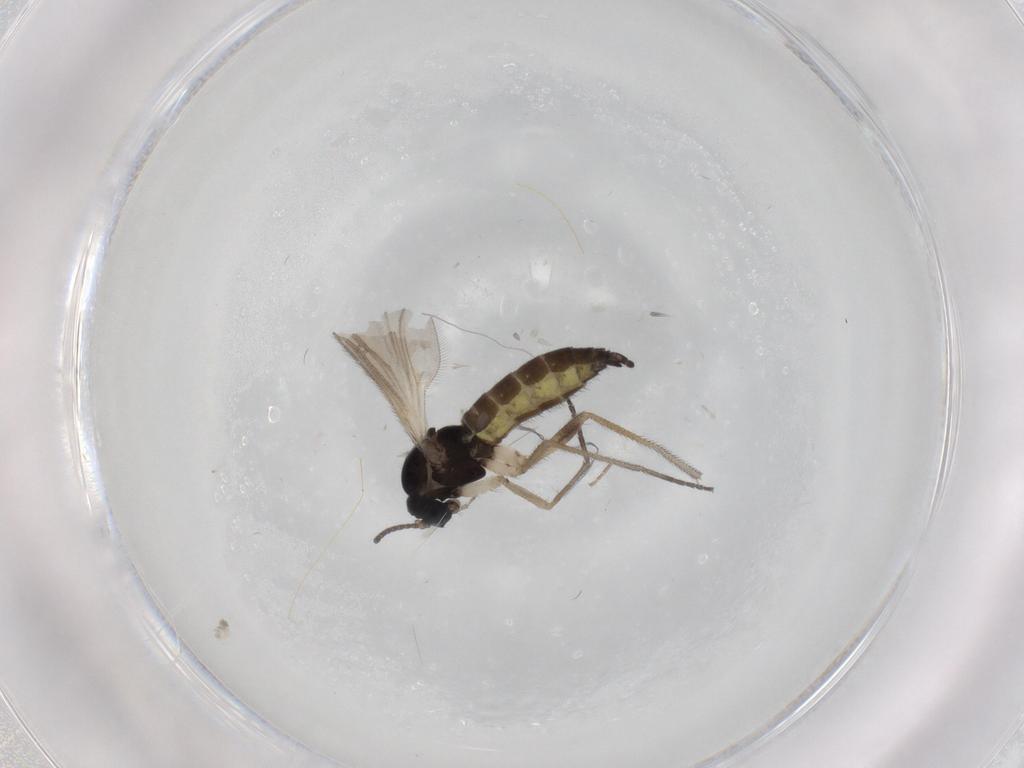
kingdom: Animalia
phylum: Arthropoda
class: Insecta
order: Diptera
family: Sciaridae
